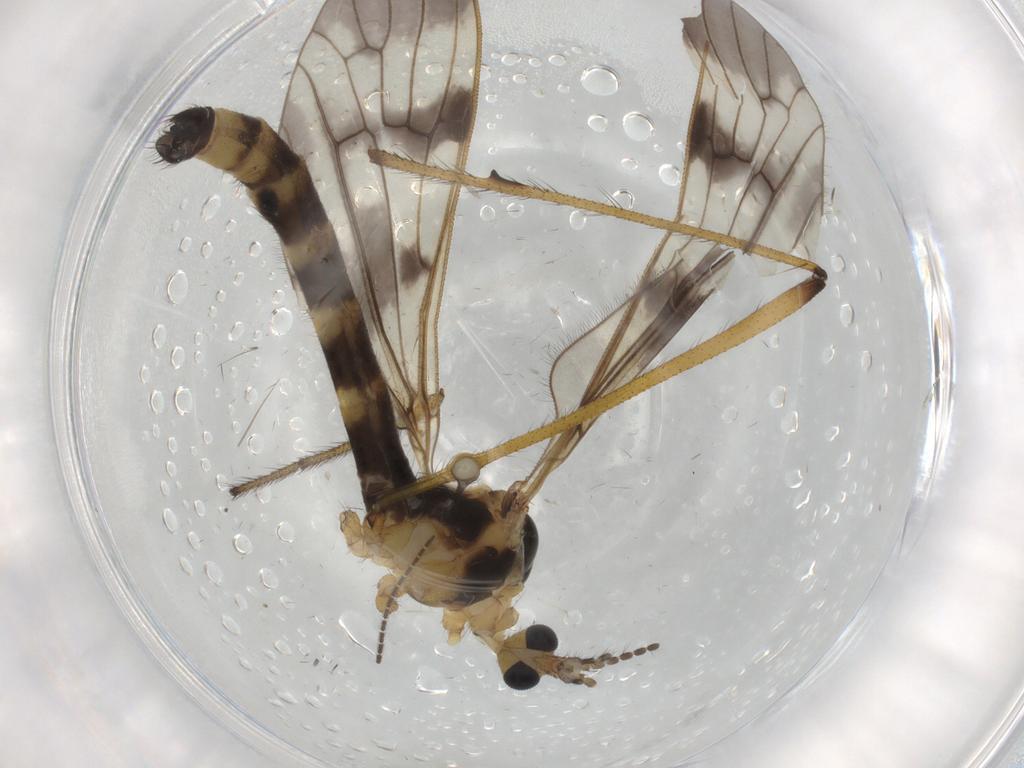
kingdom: Animalia
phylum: Arthropoda
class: Insecta
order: Diptera
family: Limoniidae
